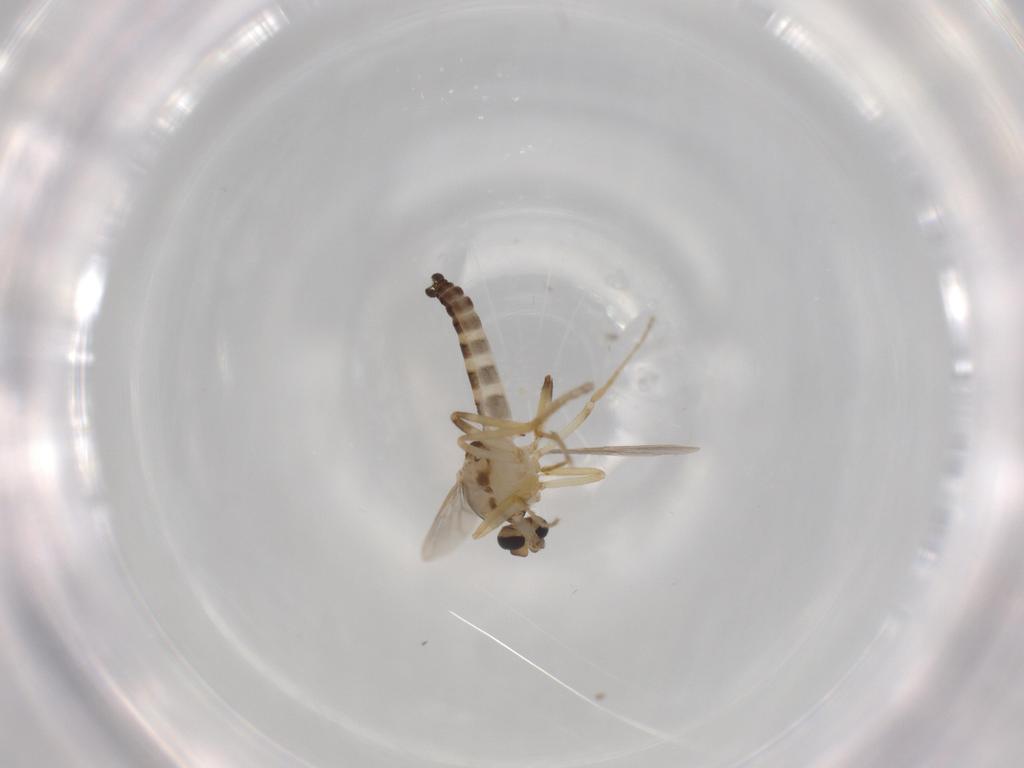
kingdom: Animalia
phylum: Arthropoda
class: Insecta
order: Diptera
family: Ceratopogonidae
